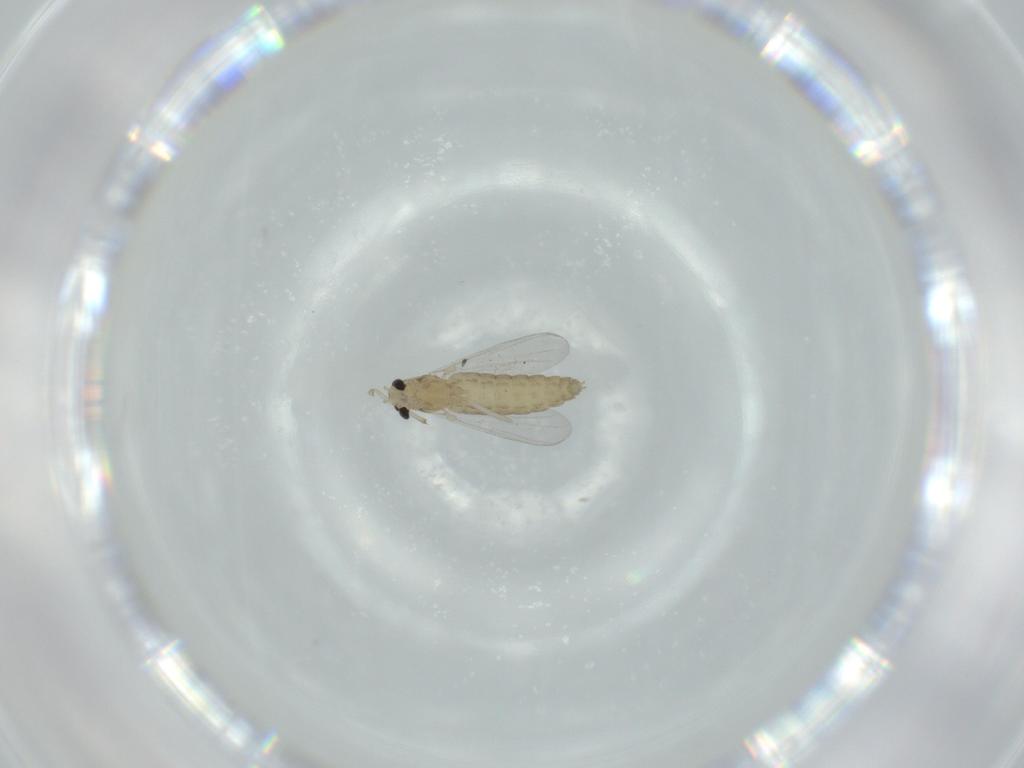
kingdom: Animalia
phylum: Arthropoda
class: Insecta
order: Diptera
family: Chironomidae
